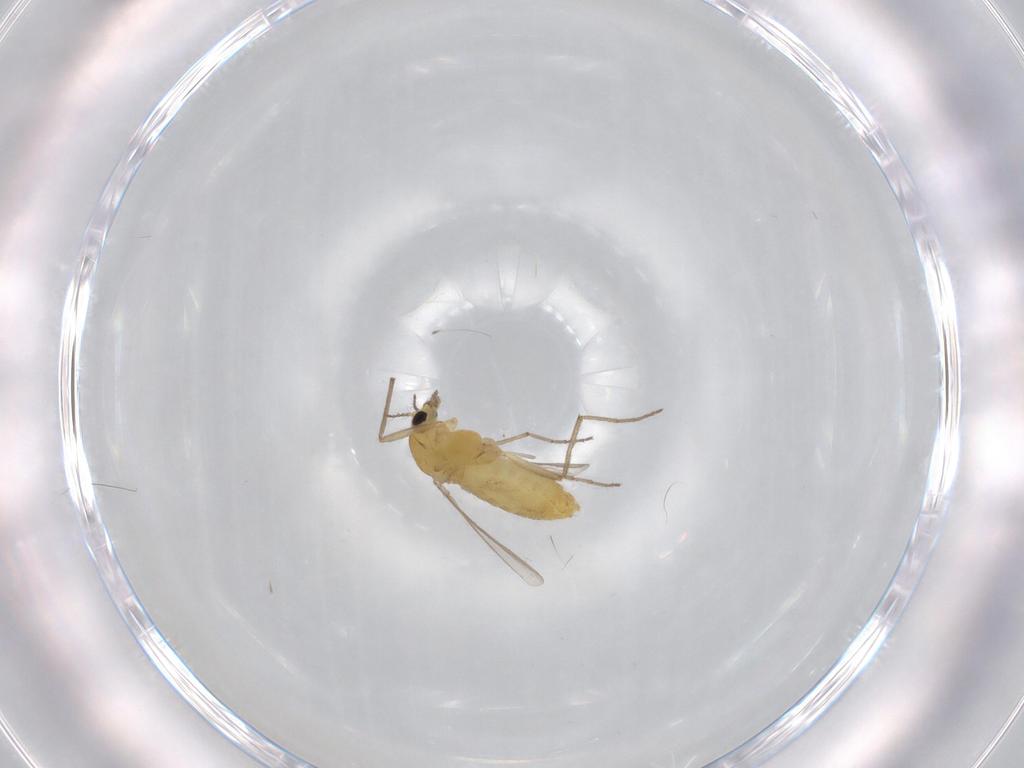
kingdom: Animalia
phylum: Arthropoda
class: Insecta
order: Diptera
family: Chironomidae
